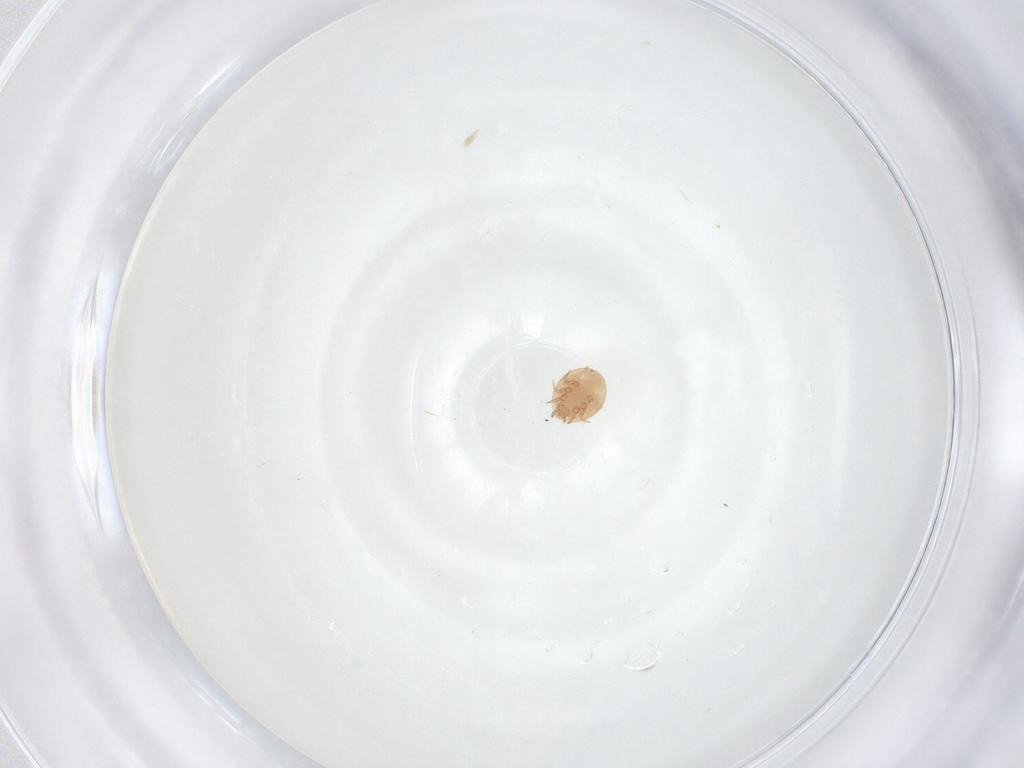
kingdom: Animalia
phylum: Arthropoda
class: Arachnida
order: Mesostigmata
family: Trematuridae
